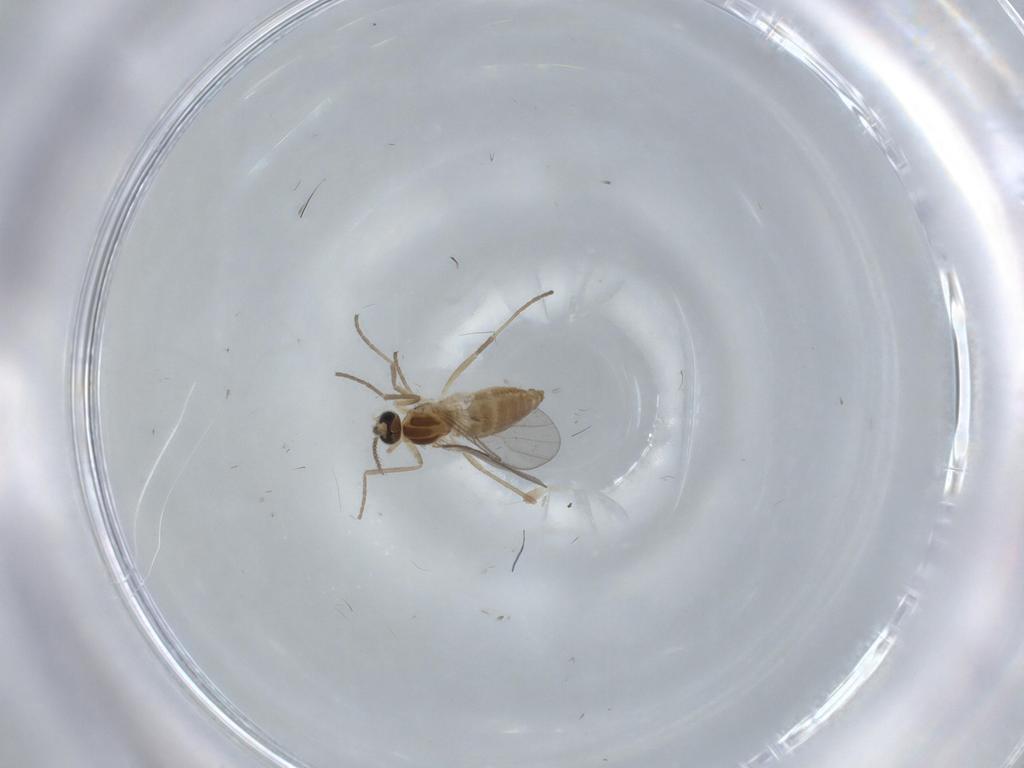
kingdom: Animalia
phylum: Arthropoda
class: Insecta
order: Diptera
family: Cecidomyiidae
